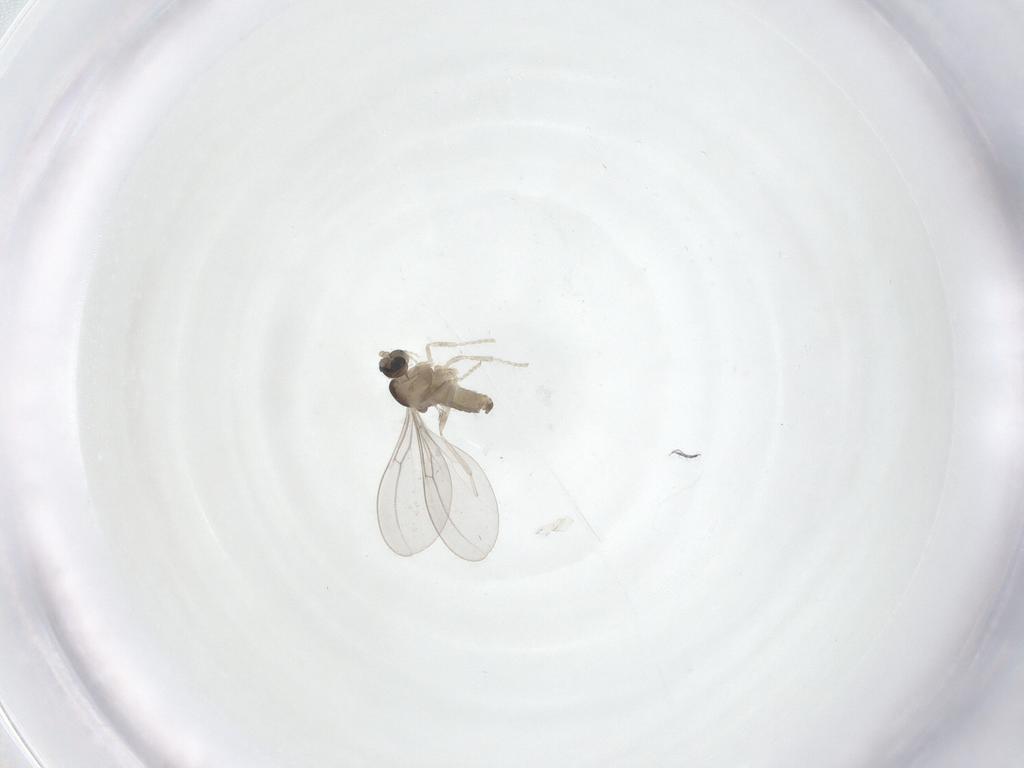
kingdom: Animalia
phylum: Arthropoda
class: Insecta
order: Diptera
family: Cecidomyiidae
